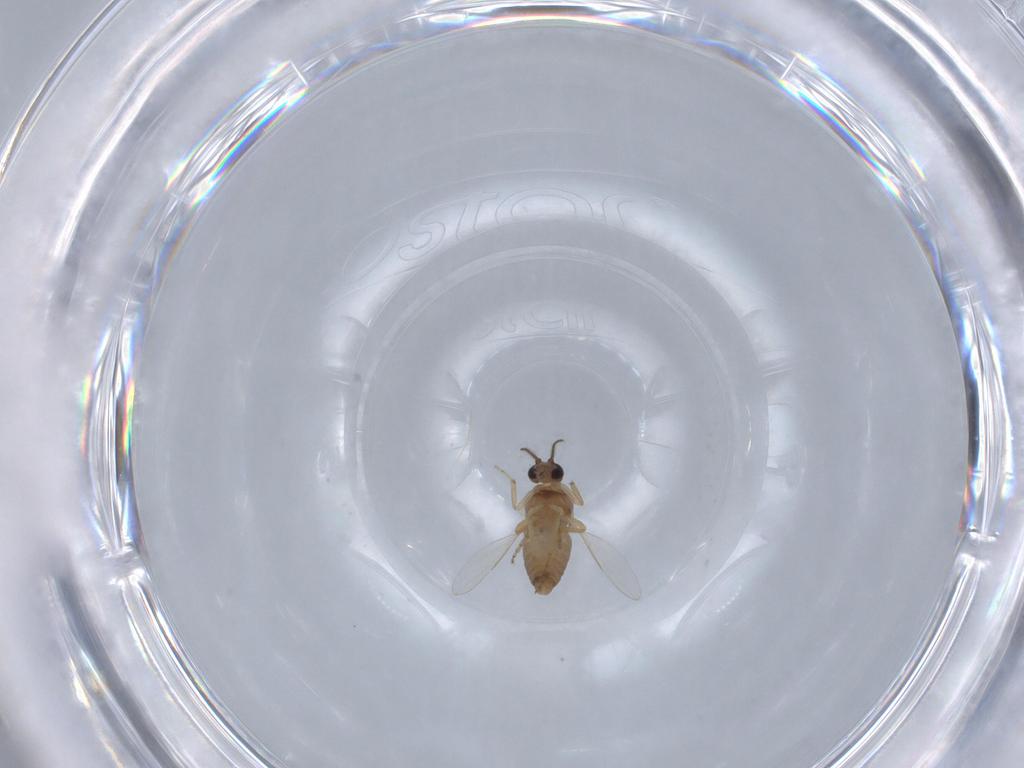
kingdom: Animalia
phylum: Arthropoda
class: Insecta
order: Diptera
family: Ceratopogonidae
